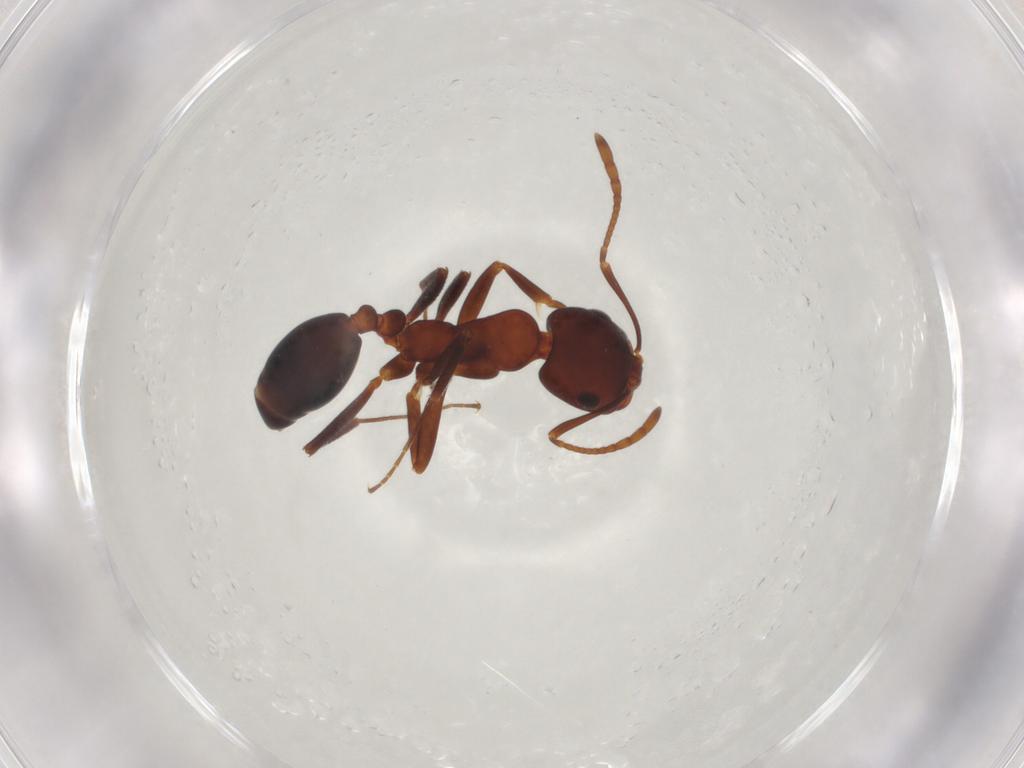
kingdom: Animalia
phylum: Arthropoda
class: Insecta
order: Hymenoptera
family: Formicidae
